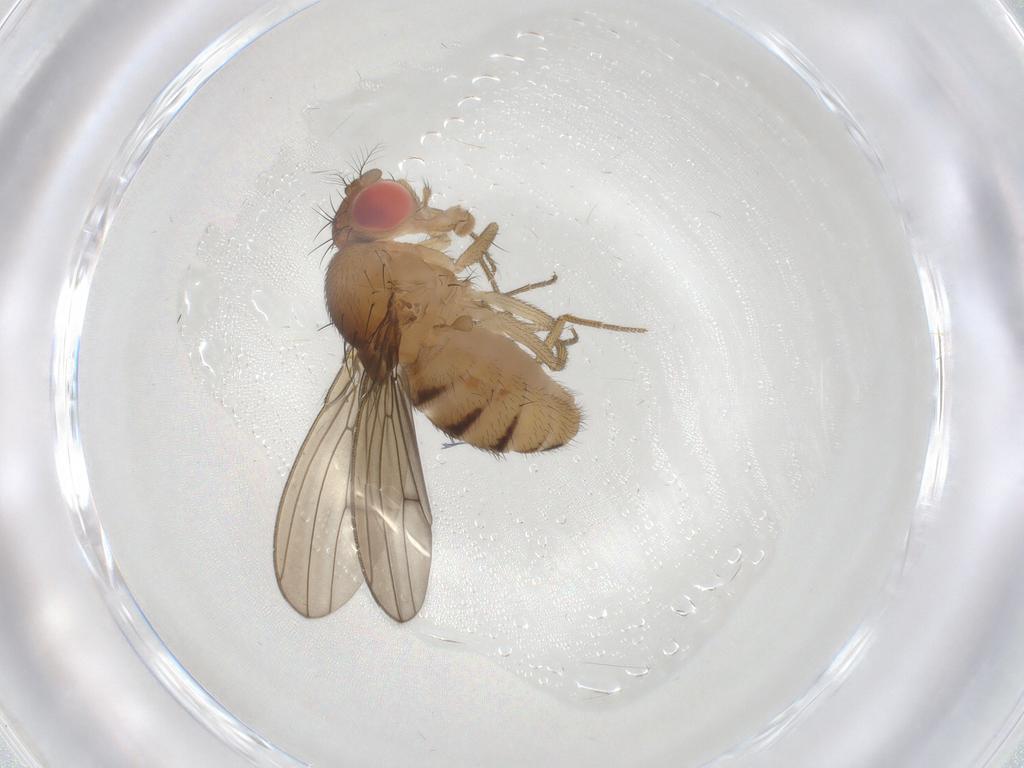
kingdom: Animalia
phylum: Arthropoda
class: Insecta
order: Diptera
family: Drosophilidae
